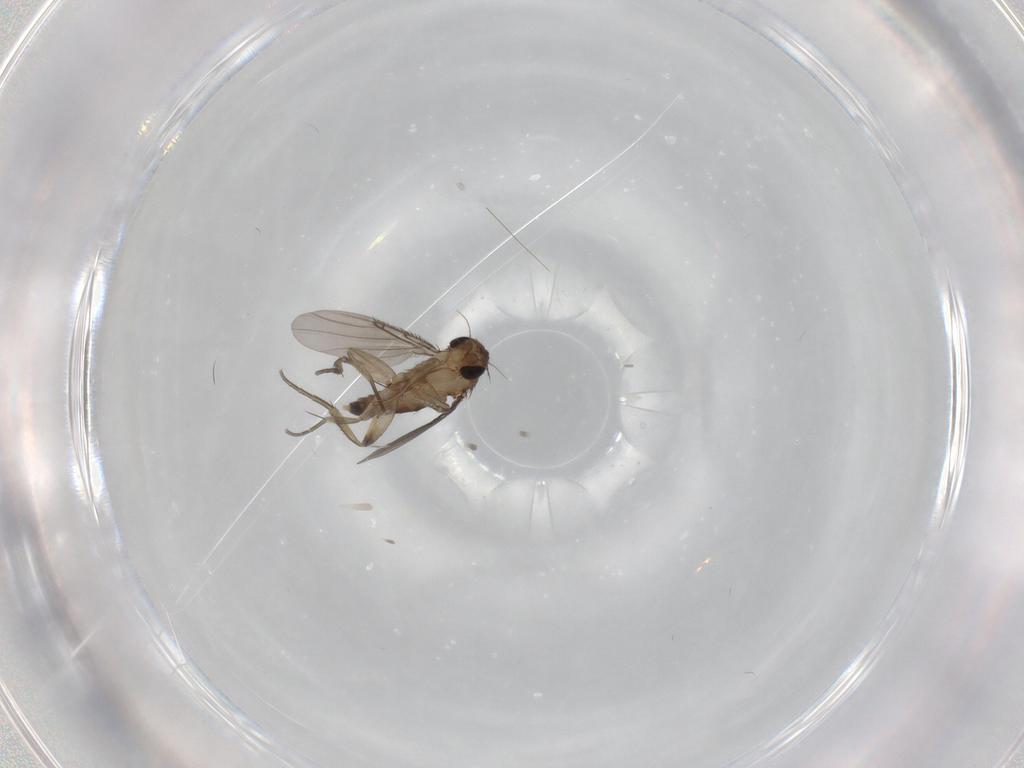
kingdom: Animalia
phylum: Arthropoda
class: Insecta
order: Diptera
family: Phoridae
